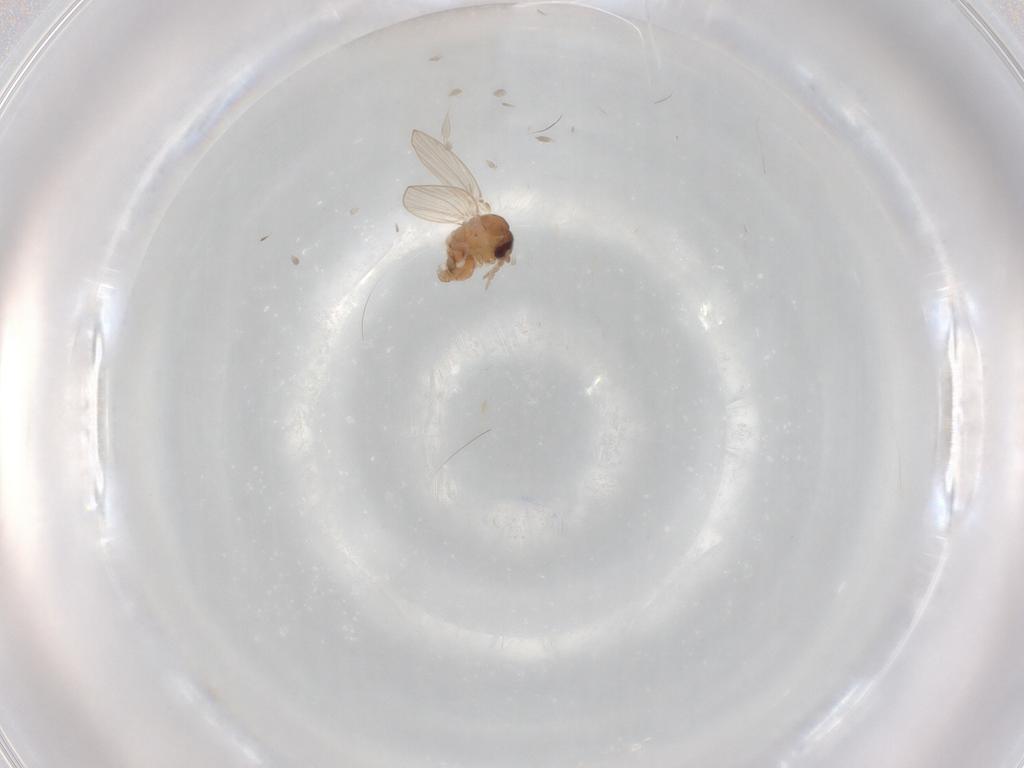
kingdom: Animalia
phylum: Arthropoda
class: Insecta
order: Diptera
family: Psychodidae
